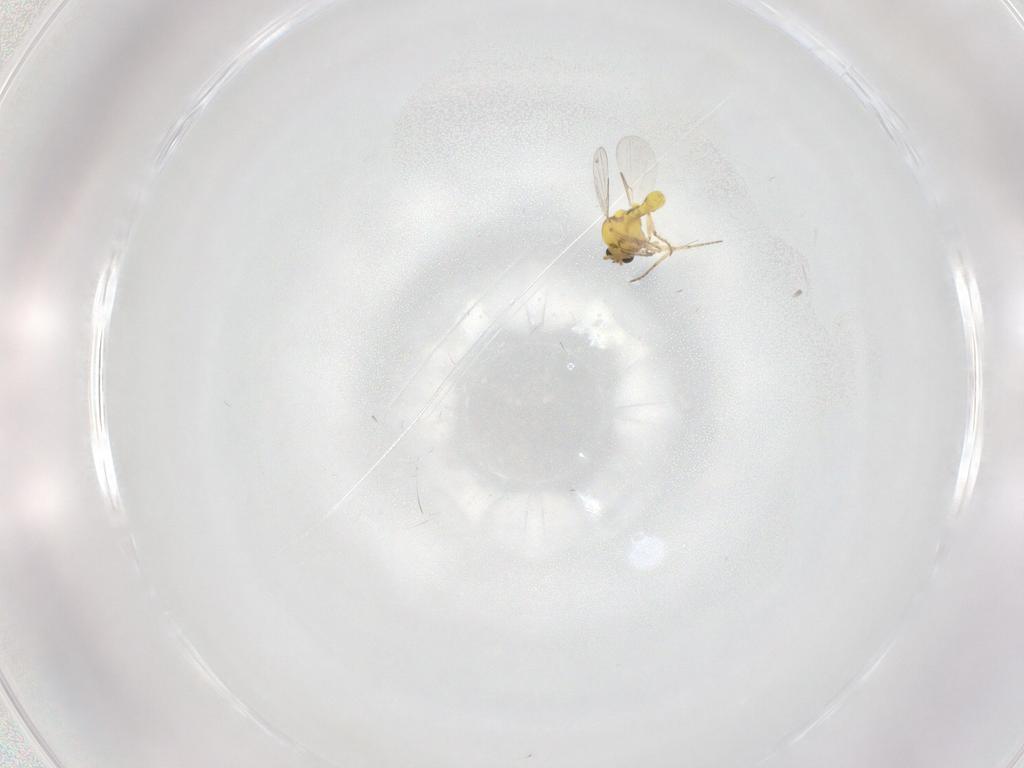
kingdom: Animalia
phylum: Arthropoda
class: Insecta
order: Diptera
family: Ceratopogonidae
